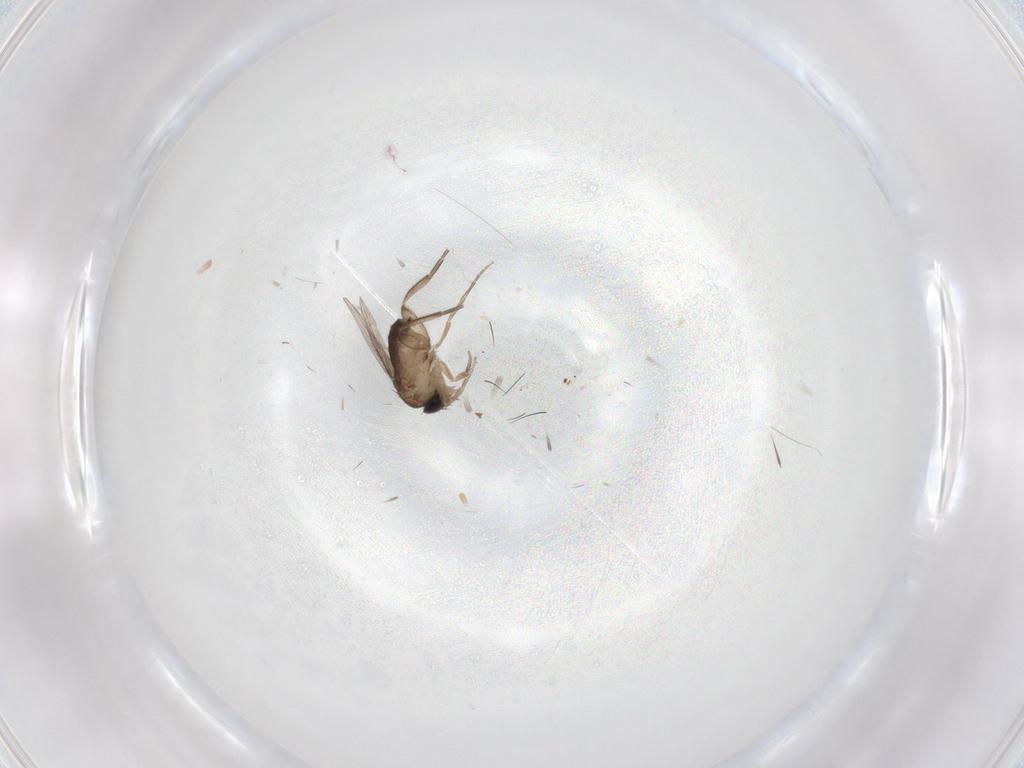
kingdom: Animalia
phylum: Arthropoda
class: Insecta
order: Diptera
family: Phoridae
